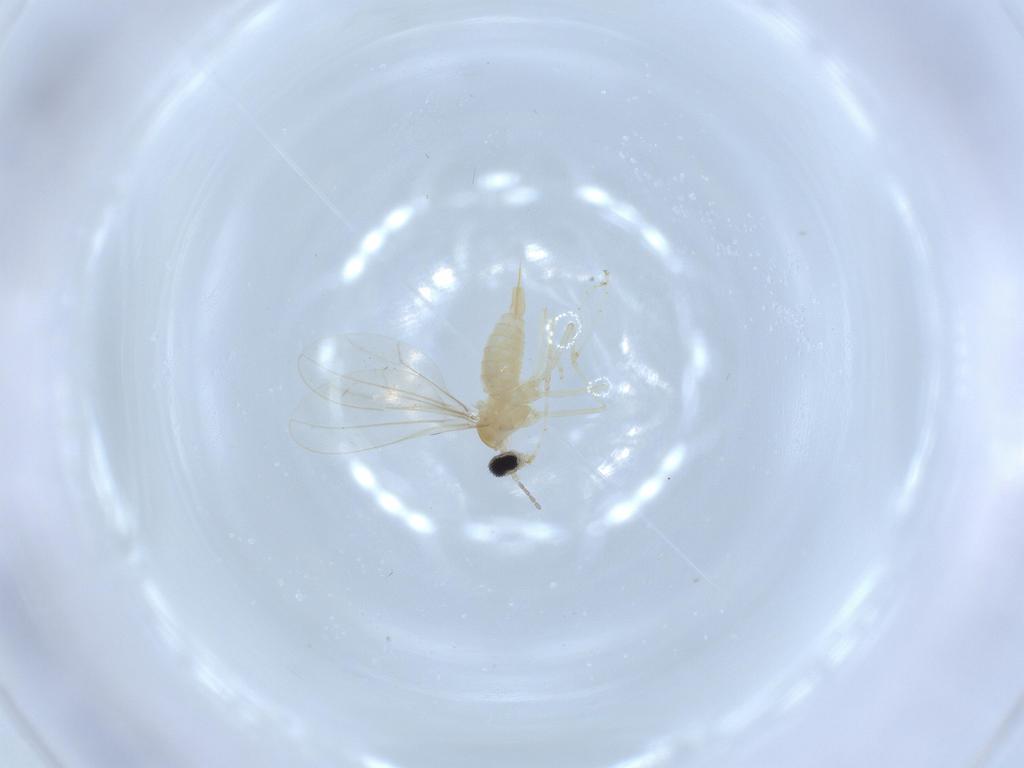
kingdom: Animalia
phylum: Arthropoda
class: Insecta
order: Diptera
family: Cecidomyiidae
